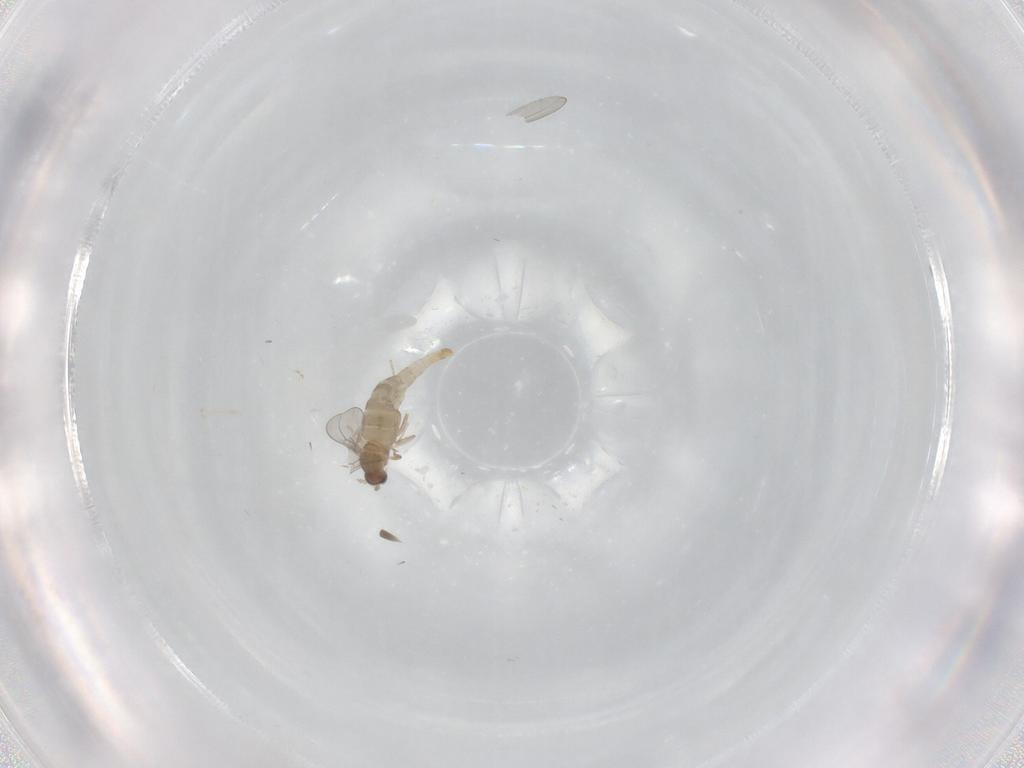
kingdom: Animalia
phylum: Arthropoda
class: Insecta
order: Diptera
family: Cecidomyiidae
